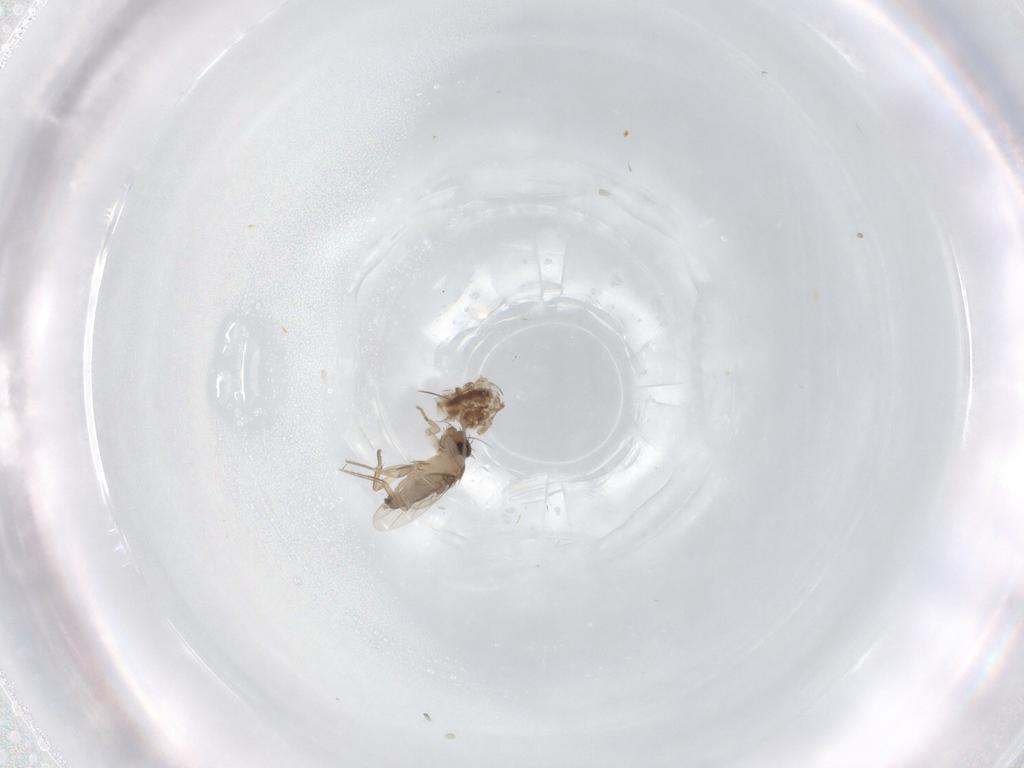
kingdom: Animalia
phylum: Arthropoda
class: Insecta
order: Diptera
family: Phoridae
